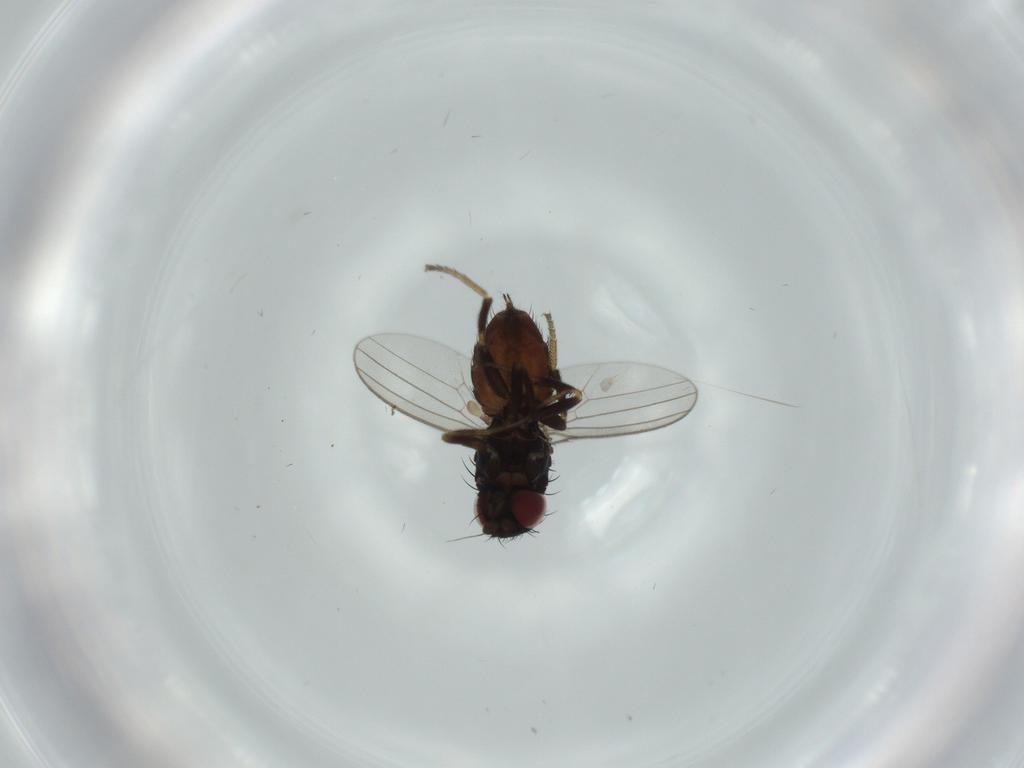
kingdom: Animalia
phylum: Arthropoda
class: Insecta
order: Diptera
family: Milichiidae
